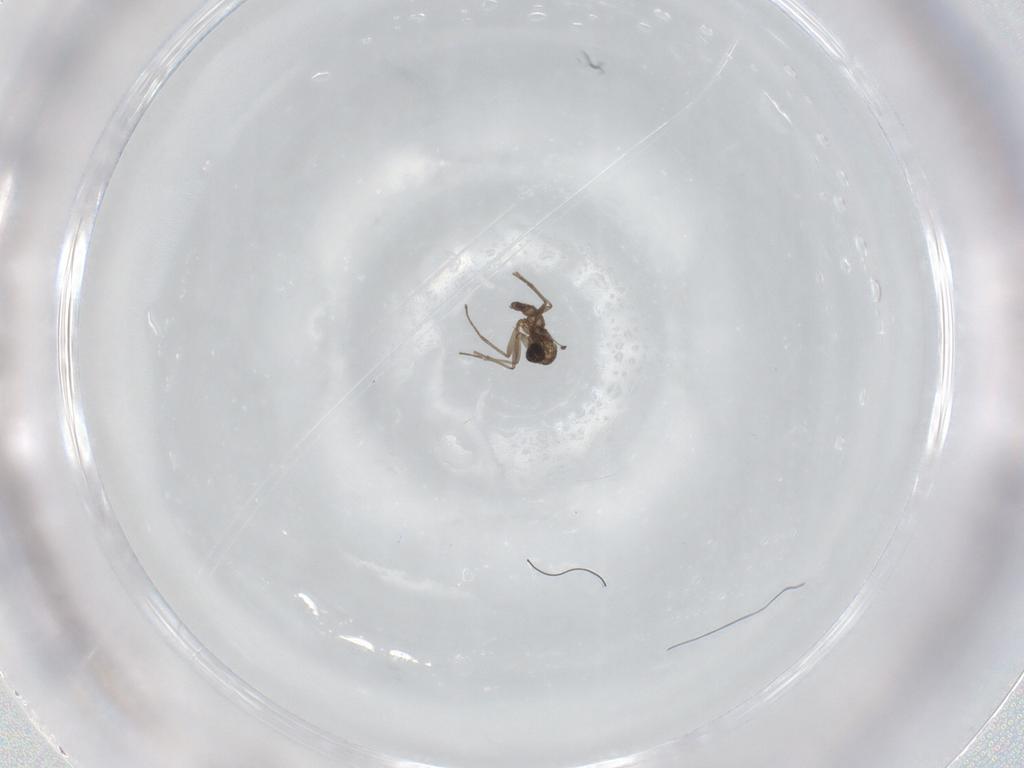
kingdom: Animalia
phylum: Arthropoda
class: Insecta
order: Diptera
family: Sciaridae
